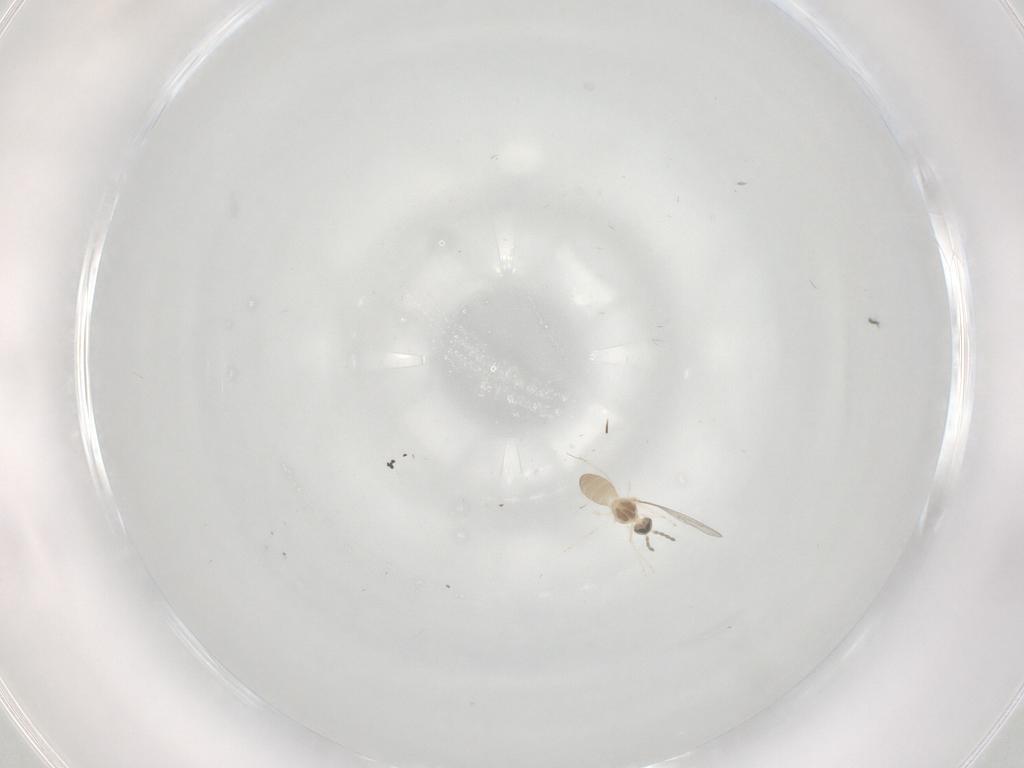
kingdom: Animalia
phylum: Arthropoda
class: Insecta
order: Diptera
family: Cecidomyiidae
